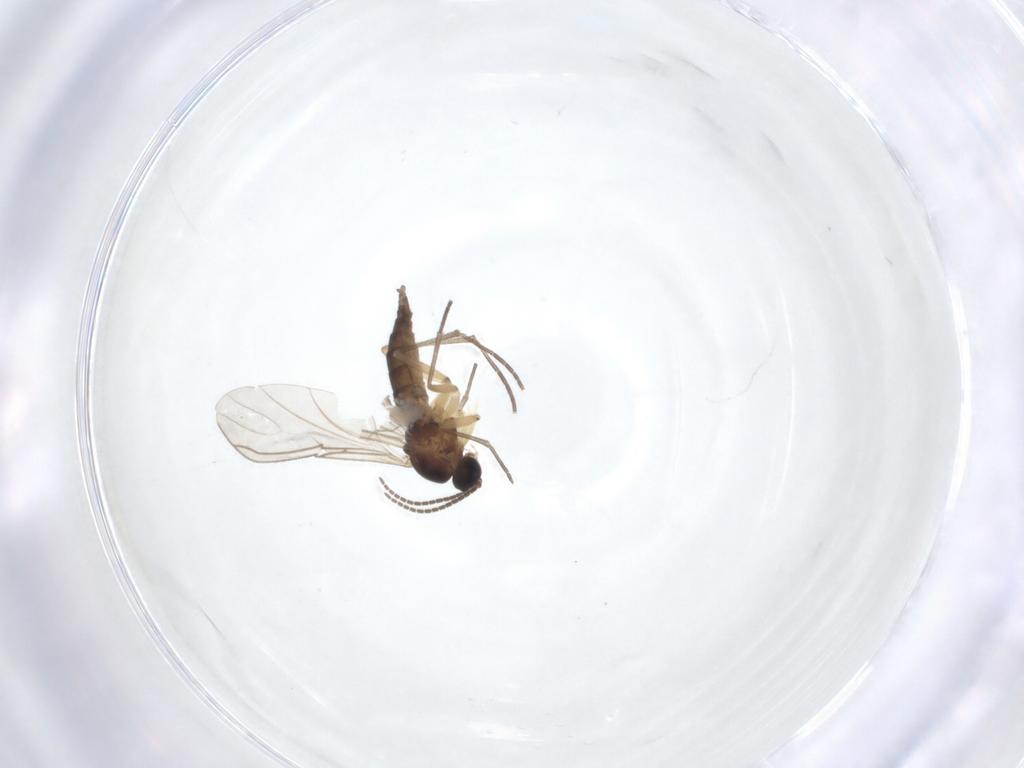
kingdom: Animalia
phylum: Arthropoda
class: Insecta
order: Diptera
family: Sciaridae
